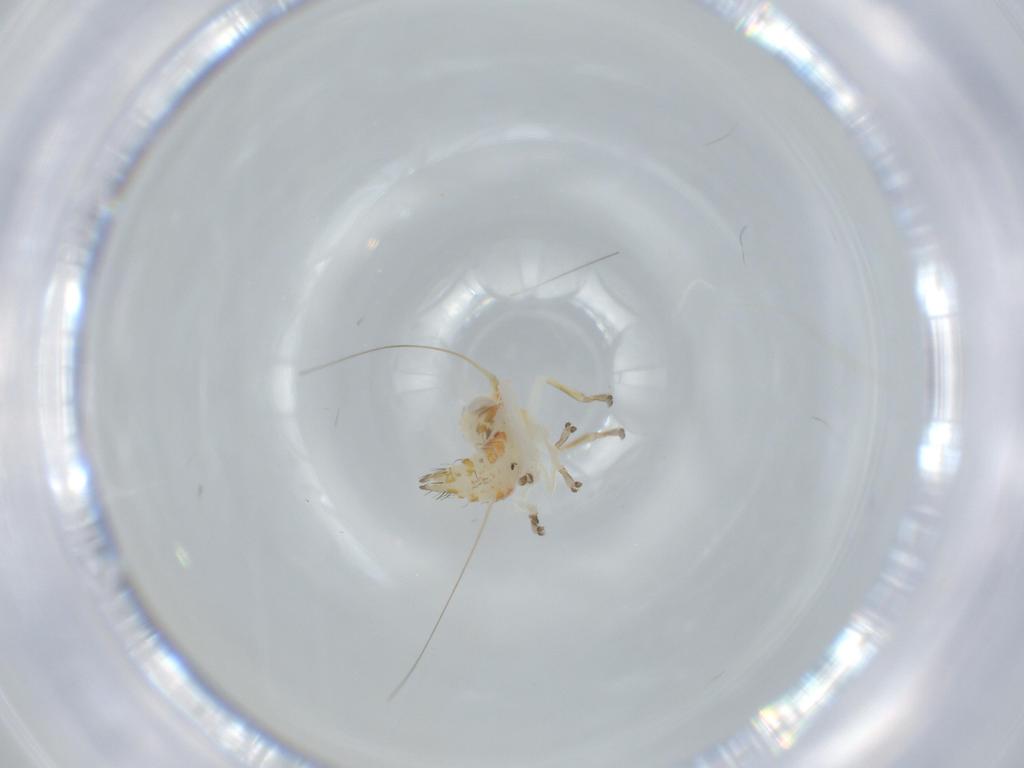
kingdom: Animalia
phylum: Arthropoda
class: Insecta
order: Hemiptera
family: Cicadellidae
